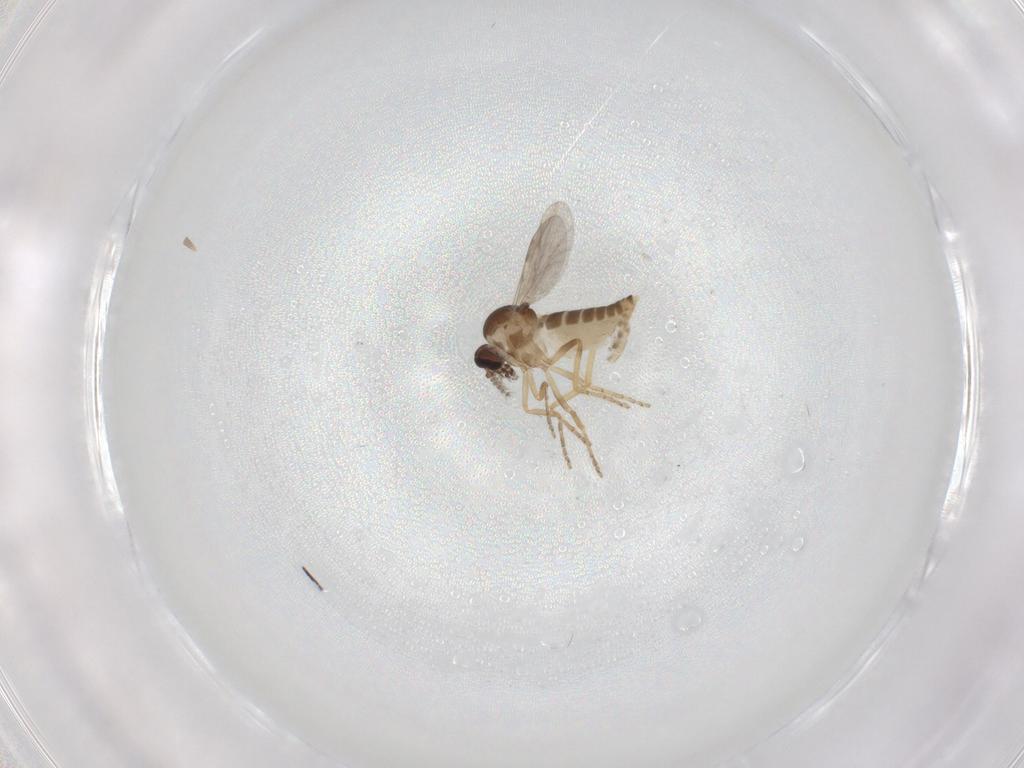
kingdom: Animalia
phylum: Arthropoda
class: Insecta
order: Diptera
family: Ceratopogonidae
